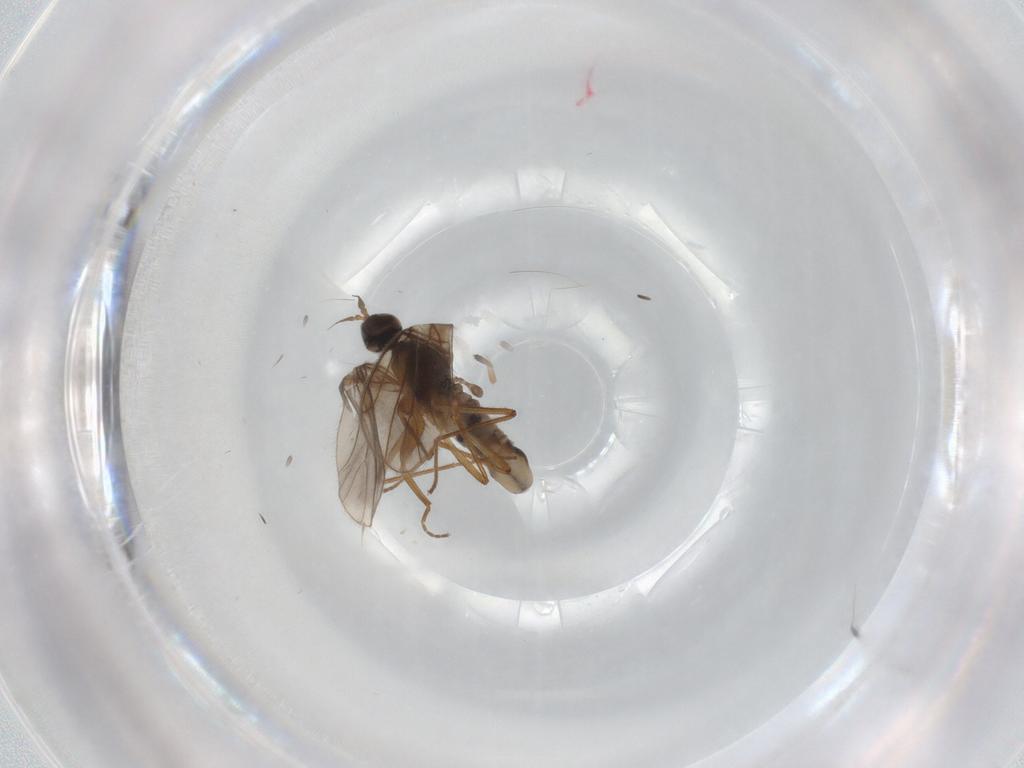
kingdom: Animalia
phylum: Arthropoda
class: Insecta
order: Diptera
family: Empididae
